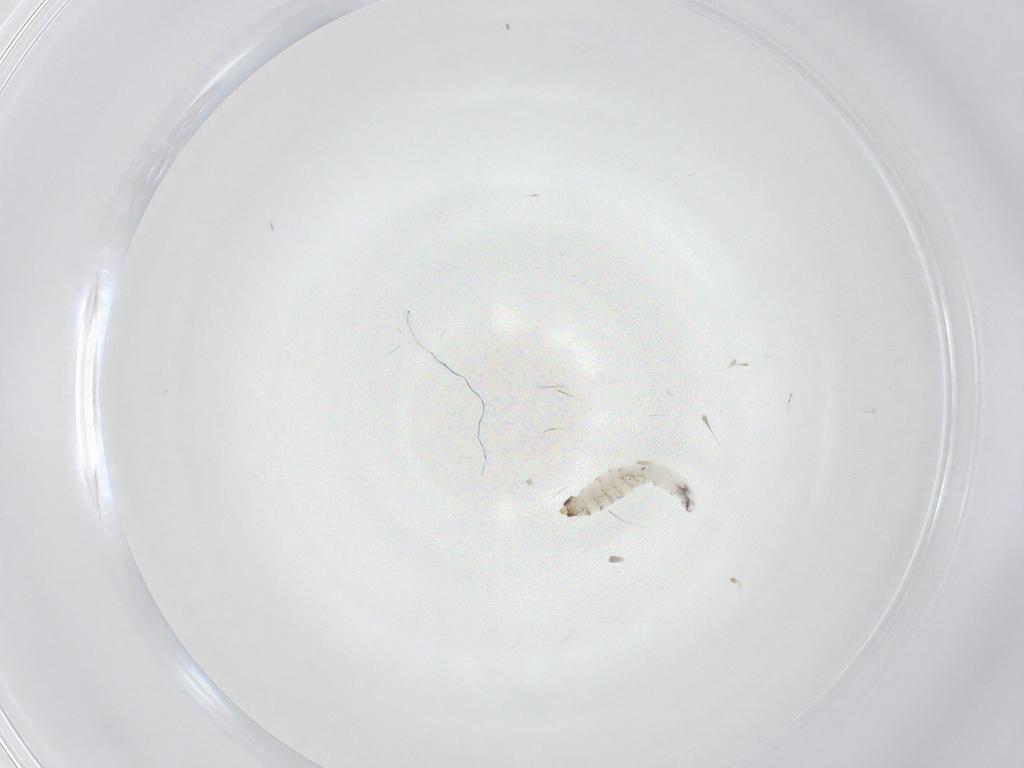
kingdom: Animalia
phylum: Arthropoda
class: Insecta
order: Diptera
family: Drosophilidae
